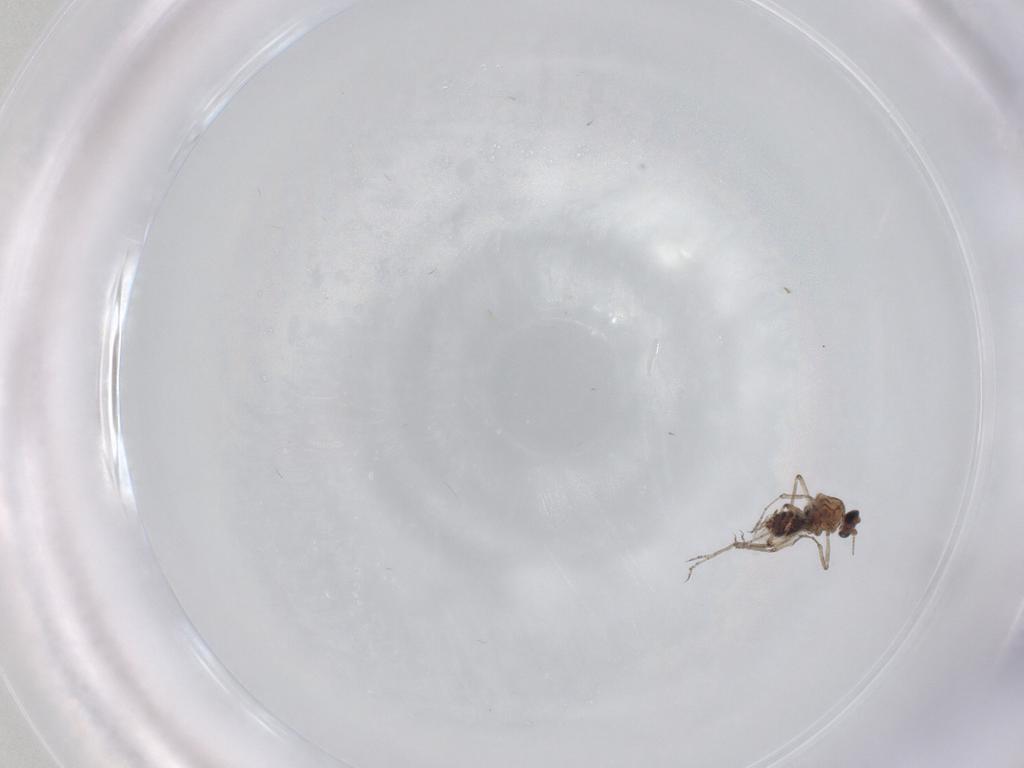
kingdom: Animalia
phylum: Arthropoda
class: Insecta
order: Diptera
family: Ceratopogonidae
